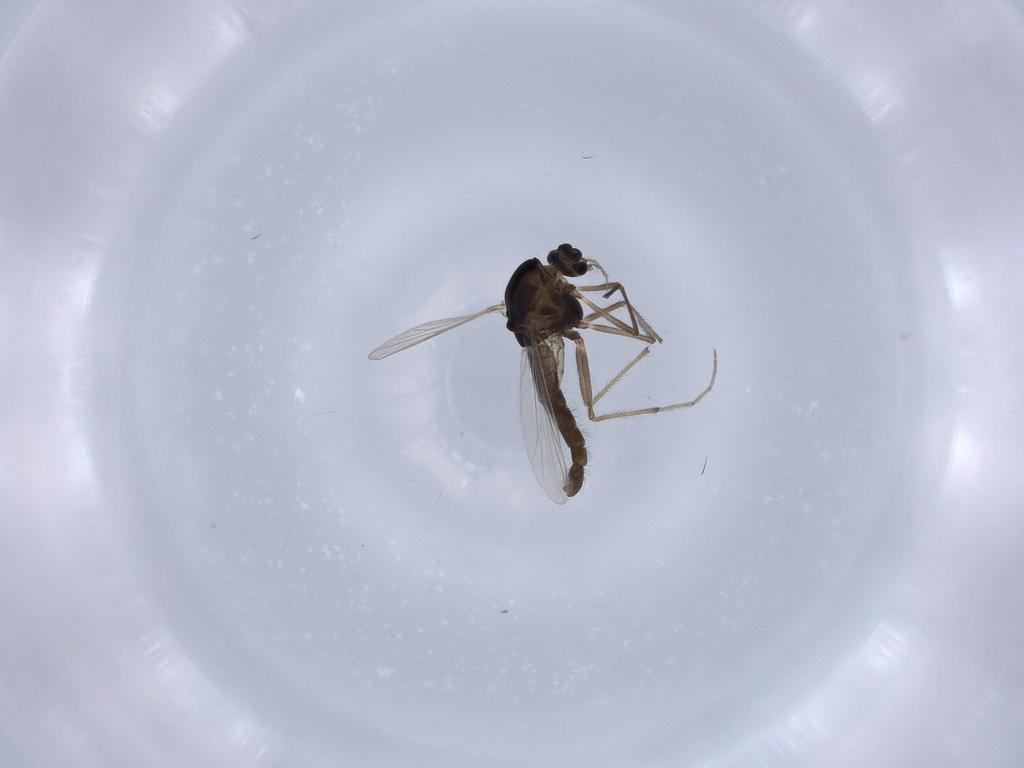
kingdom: Animalia
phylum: Arthropoda
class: Insecta
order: Diptera
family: Chironomidae
